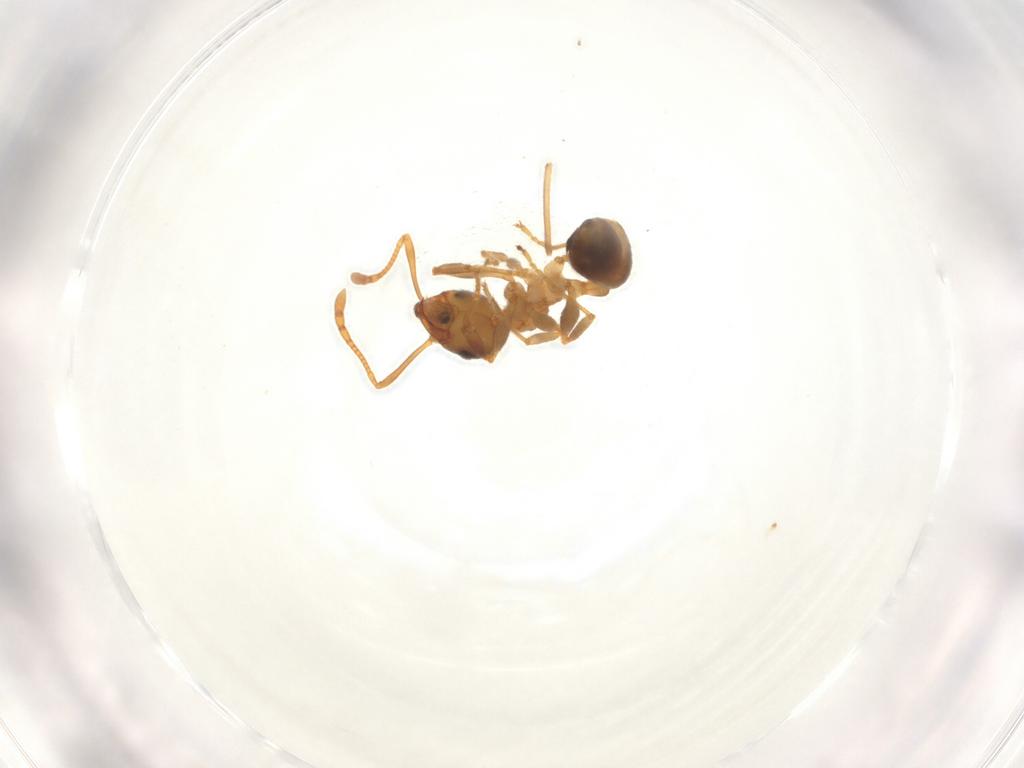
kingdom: Animalia
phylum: Arthropoda
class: Collembola
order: Entomobryomorpha
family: Entomobryidae
